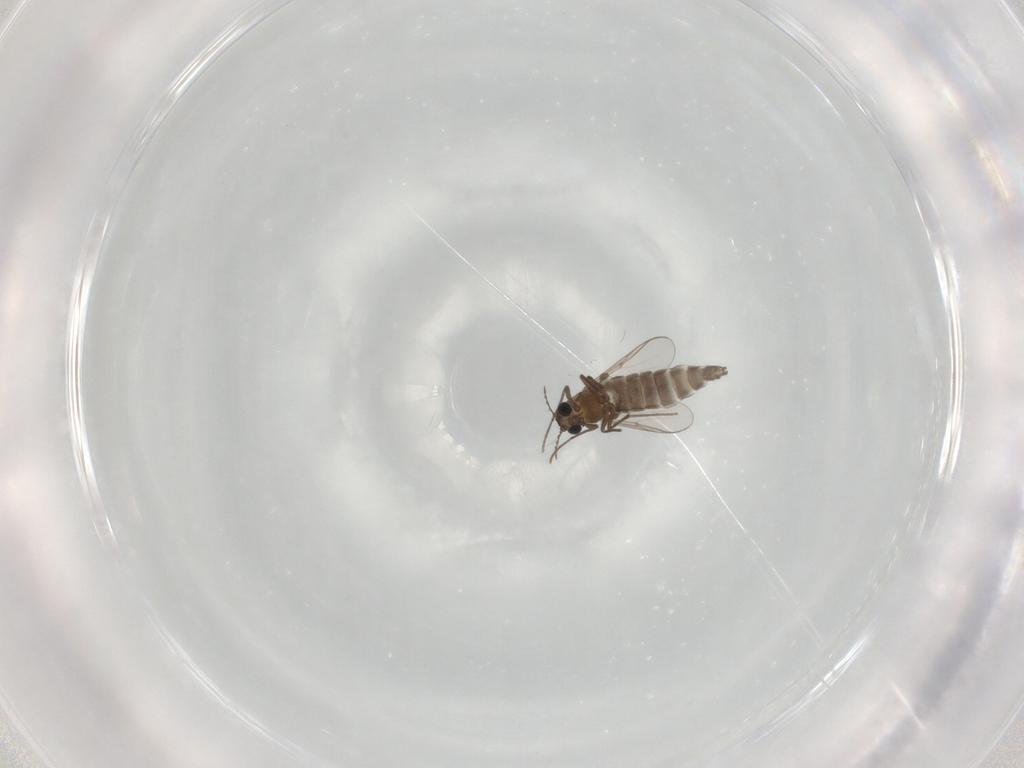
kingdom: Animalia
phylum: Arthropoda
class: Insecta
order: Diptera
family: Chironomidae
